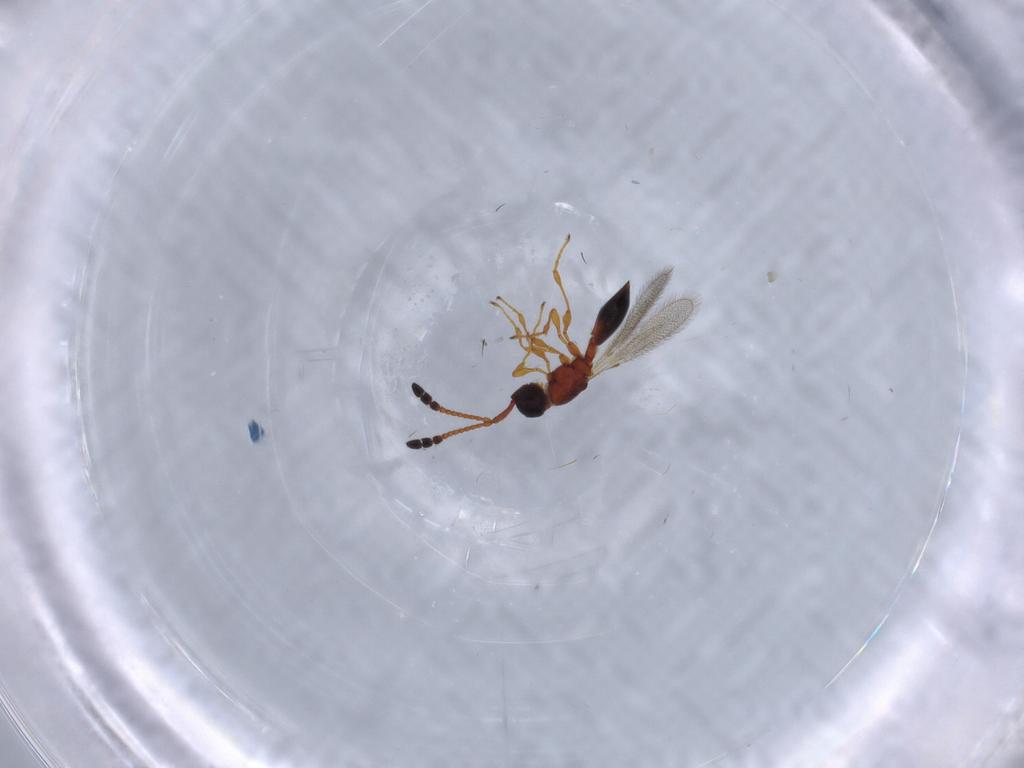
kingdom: Animalia
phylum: Arthropoda
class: Insecta
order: Hymenoptera
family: Diapriidae
